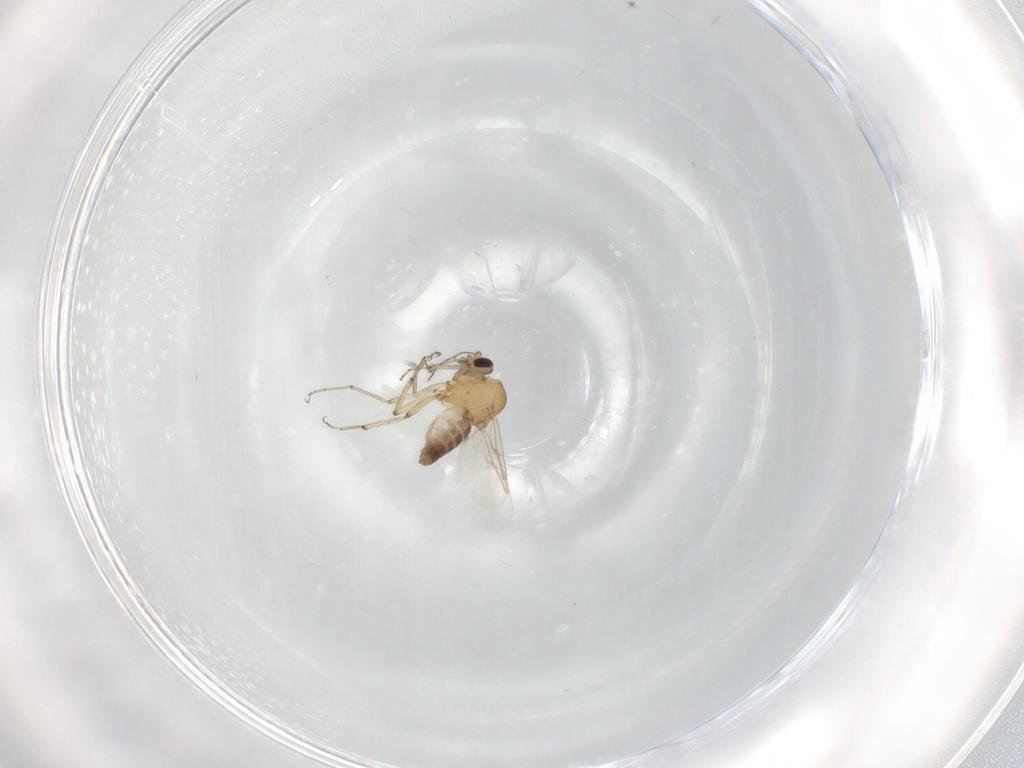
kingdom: Animalia
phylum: Arthropoda
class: Insecta
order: Diptera
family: Ceratopogonidae
